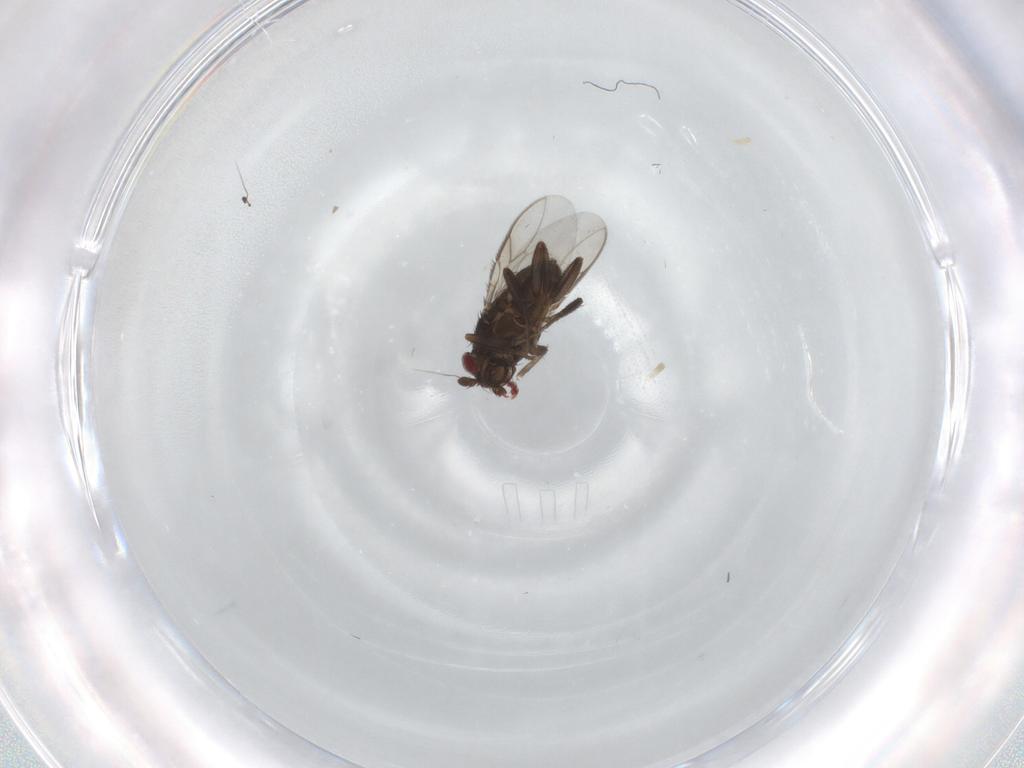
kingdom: Animalia
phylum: Arthropoda
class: Insecta
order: Diptera
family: Sphaeroceridae
